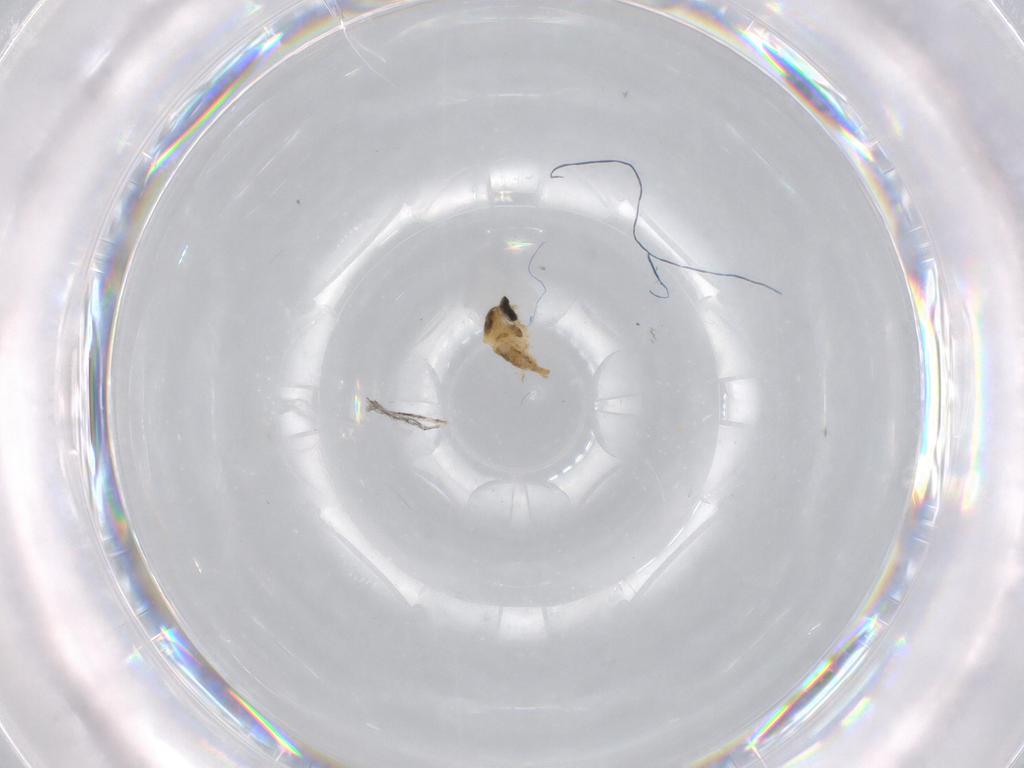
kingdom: Animalia
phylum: Arthropoda
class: Insecta
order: Diptera
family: Cecidomyiidae
